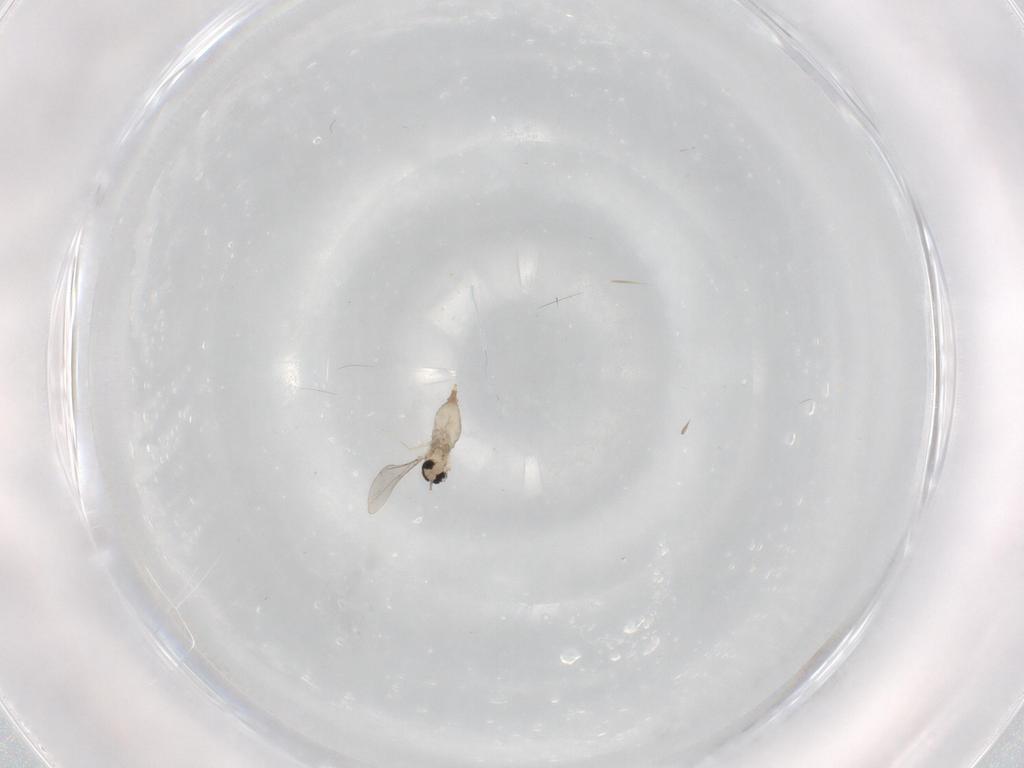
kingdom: Animalia
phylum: Arthropoda
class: Insecta
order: Diptera
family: Cecidomyiidae
